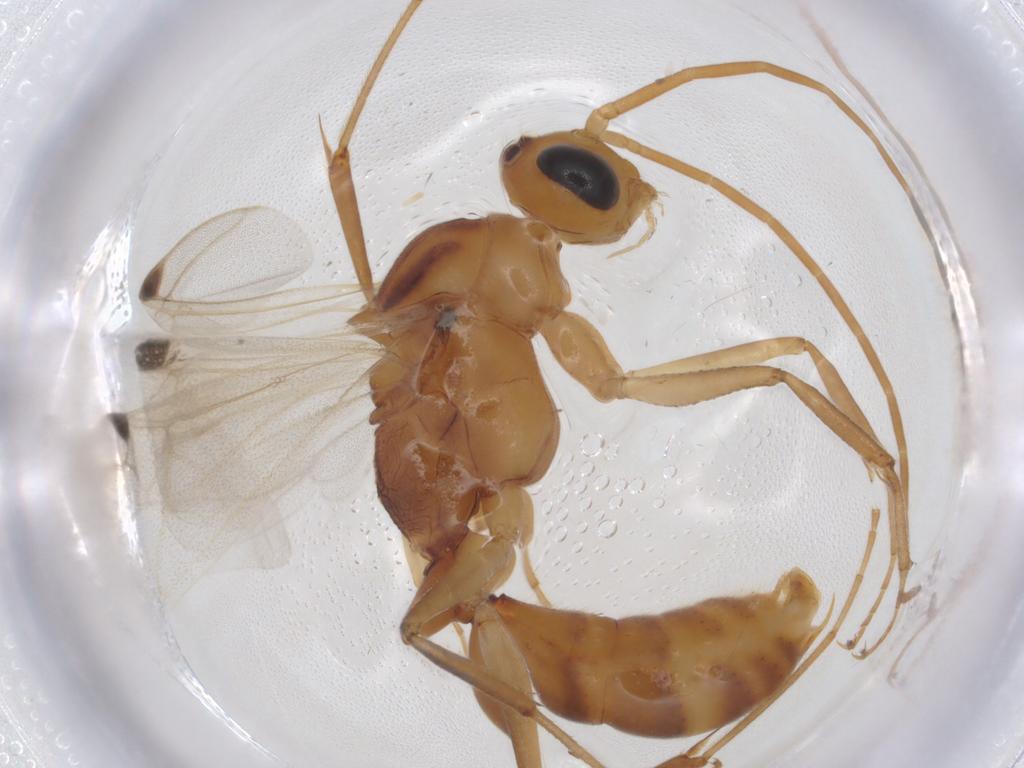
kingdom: Animalia
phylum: Arthropoda
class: Insecta
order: Hymenoptera
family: Formicidae
